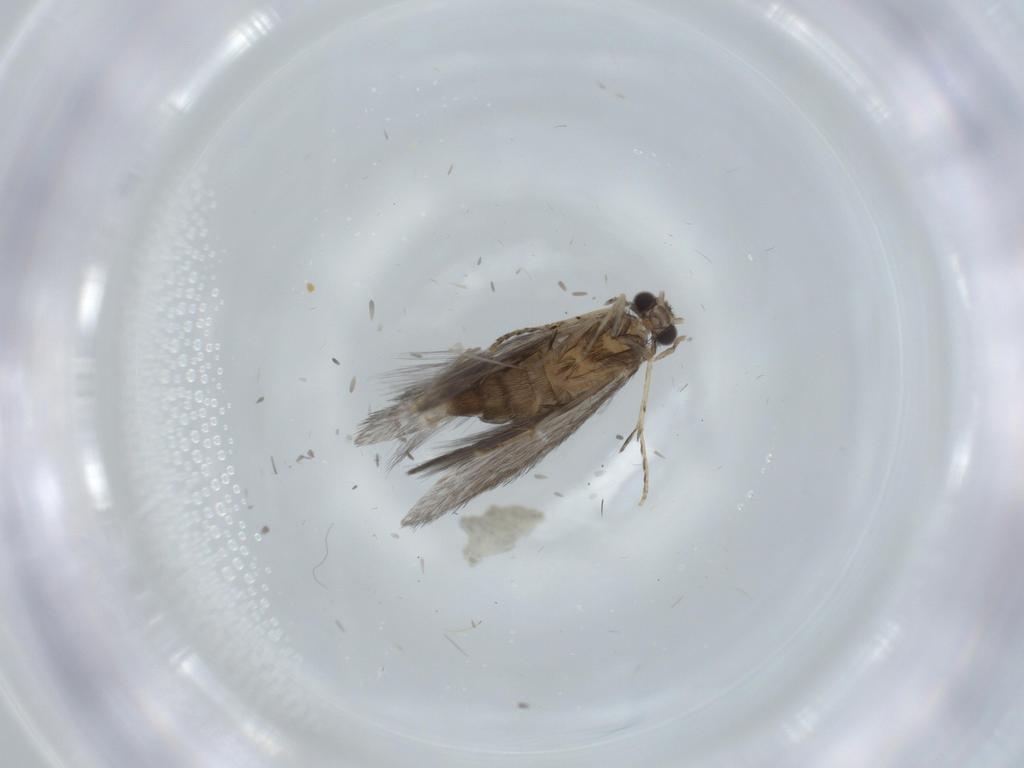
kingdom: Animalia
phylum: Arthropoda
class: Insecta
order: Trichoptera
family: Hydroptilidae
